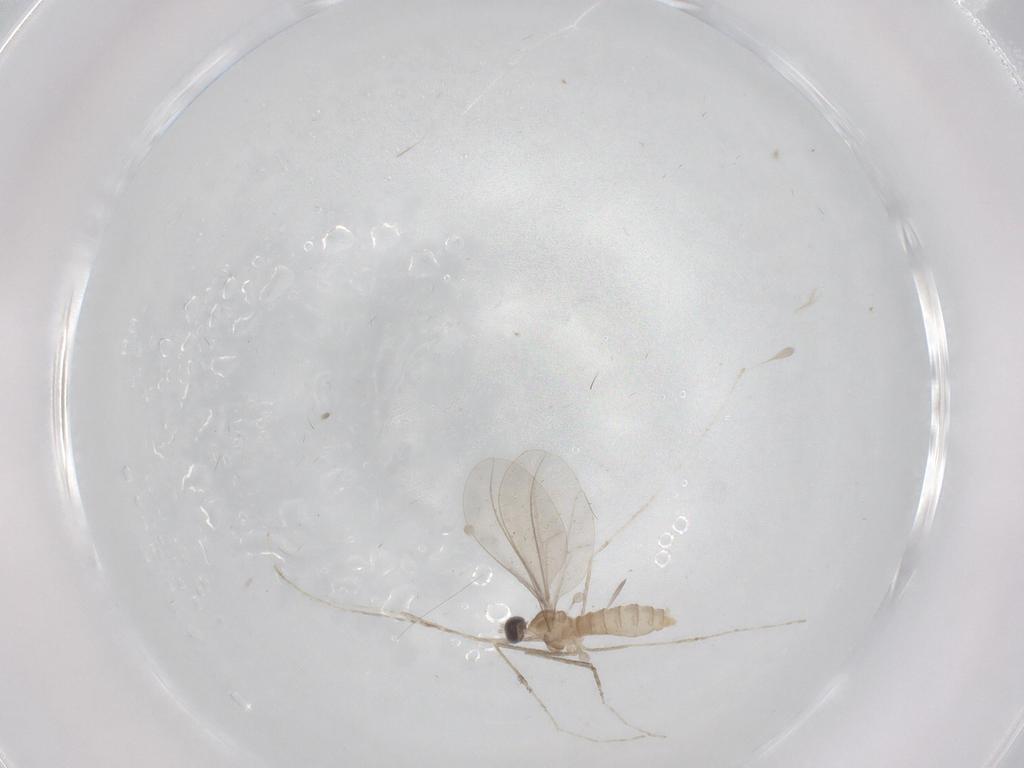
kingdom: Animalia
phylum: Arthropoda
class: Insecta
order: Diptera
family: Cecidomyiidae
